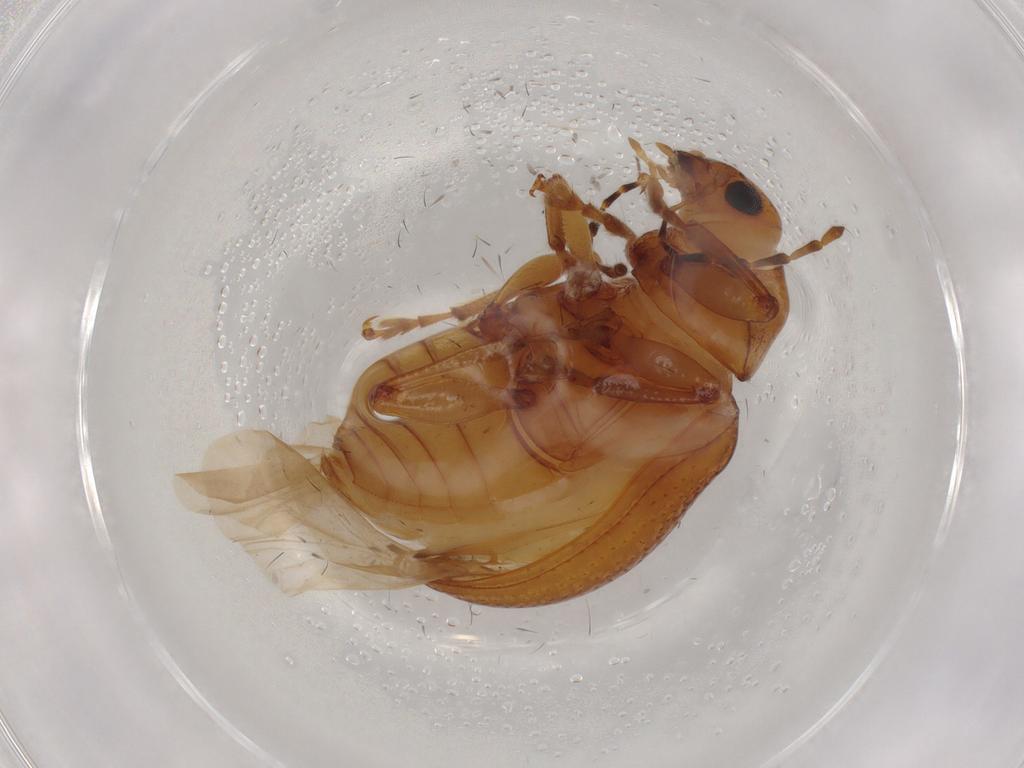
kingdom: Animalia
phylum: Arthropoda
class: Insecta
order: Coleoptera
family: Chrysomelidae
